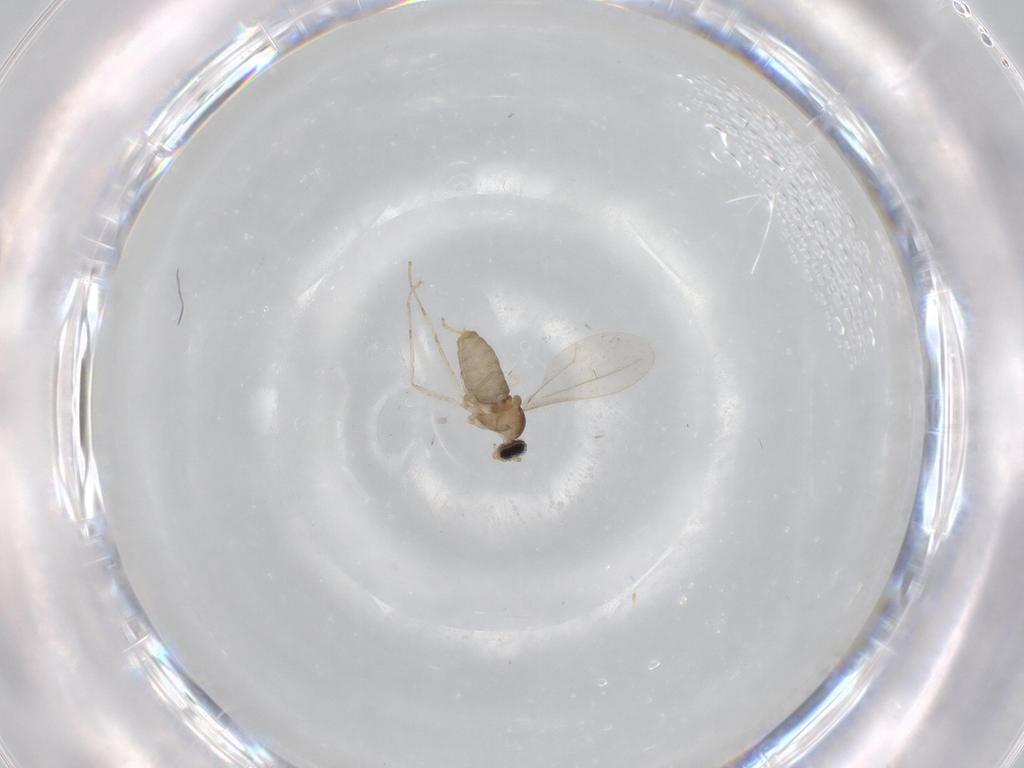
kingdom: Animalia
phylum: Arthropoda
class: Insecta
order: Diptera
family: Cecidomyiidae
